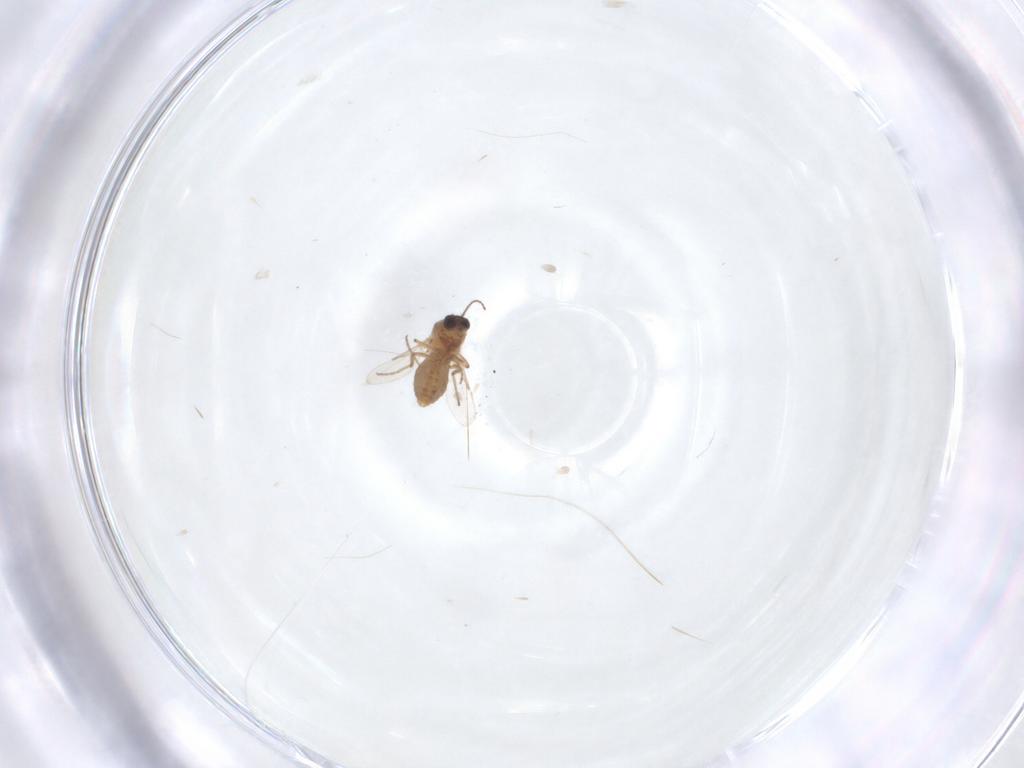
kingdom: Animalia
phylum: Arthropoda
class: Insecta
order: Diptera
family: Ceratopogonidae
